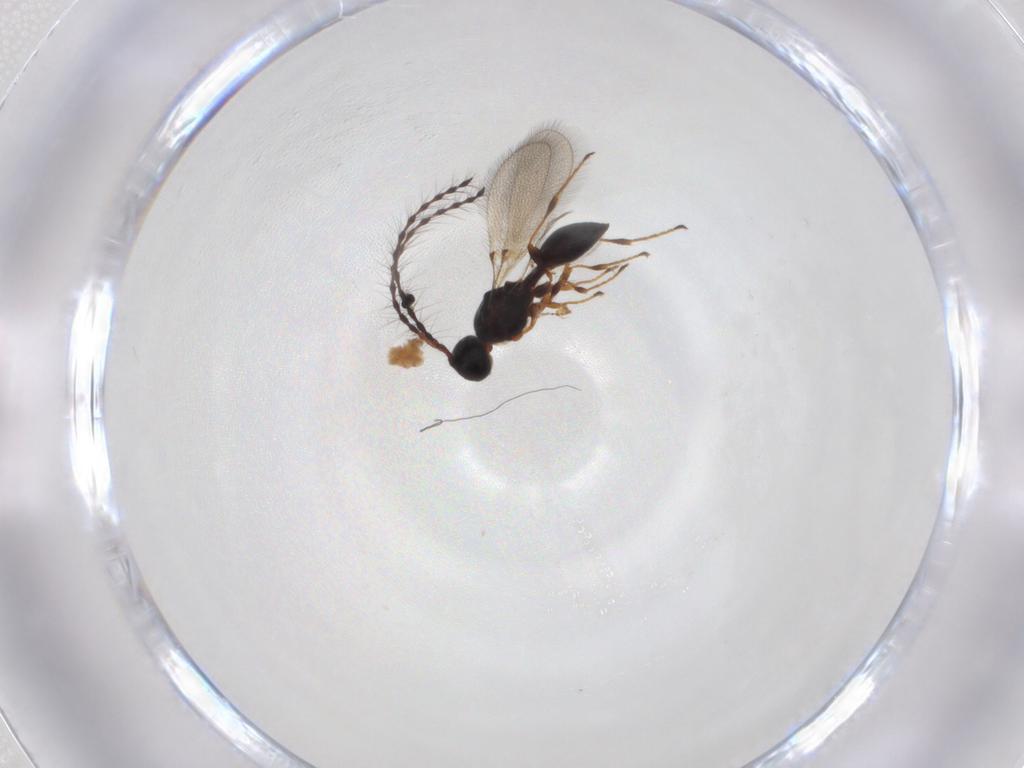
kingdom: Animalia
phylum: Arthropoda
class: Insecta
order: Hymenoptera
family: Diapriidae
